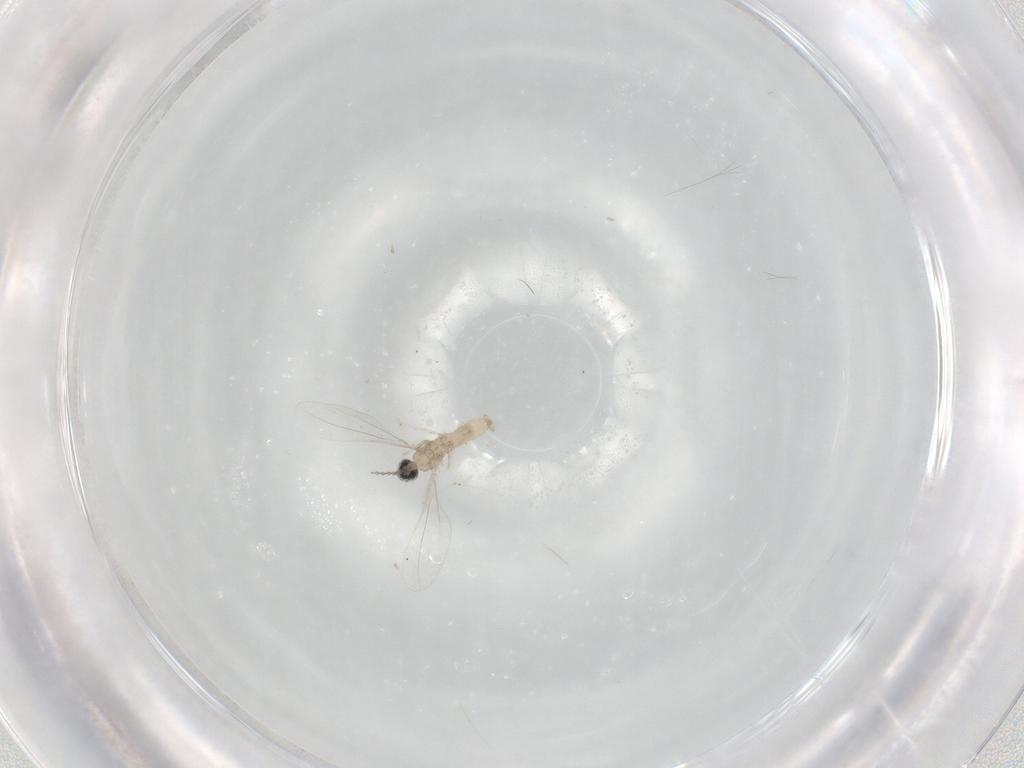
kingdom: Animalia
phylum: Arthropoda
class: Insecta
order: Diptera
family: Cecidomyiidae
